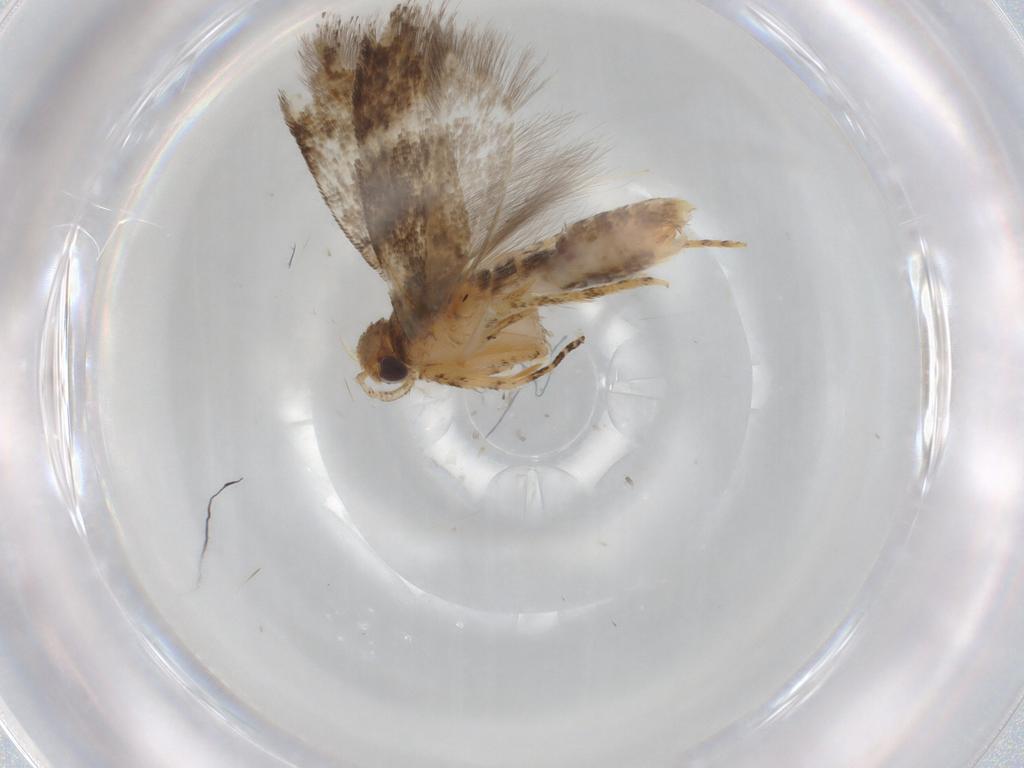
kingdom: Animalia
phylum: Arthropoda
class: Insecta
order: Lepidoptera
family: Gelechiidae
